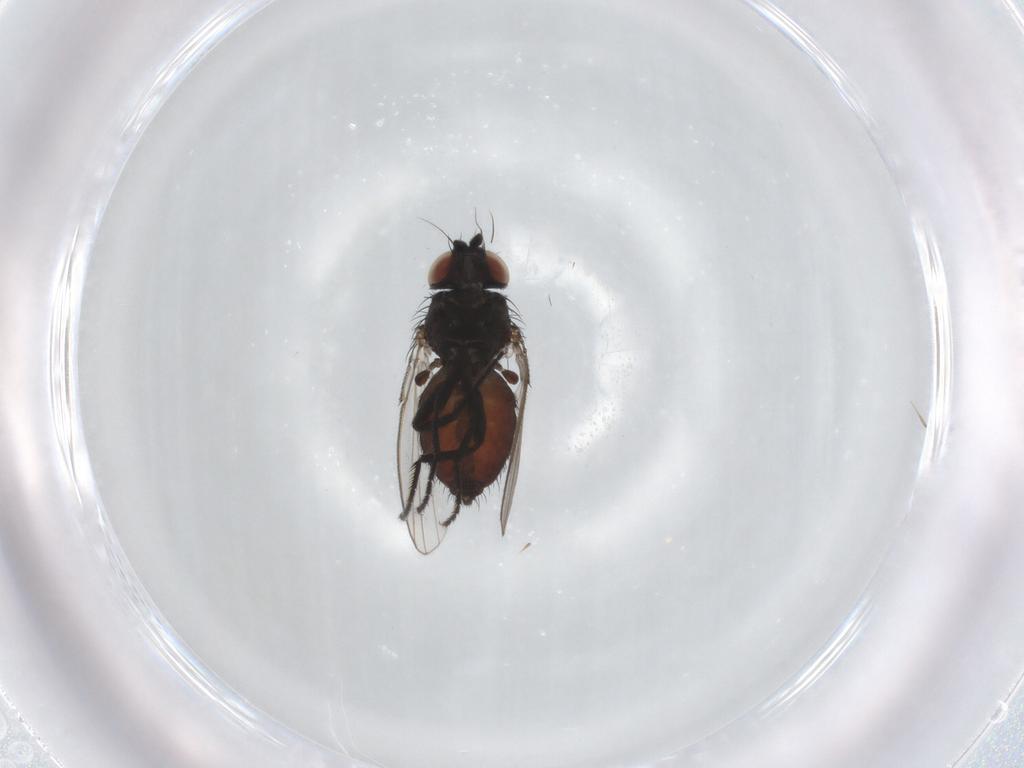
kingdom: Animalia
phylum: Arthropoda
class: Insecta
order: Diptera
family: Milichiidae
